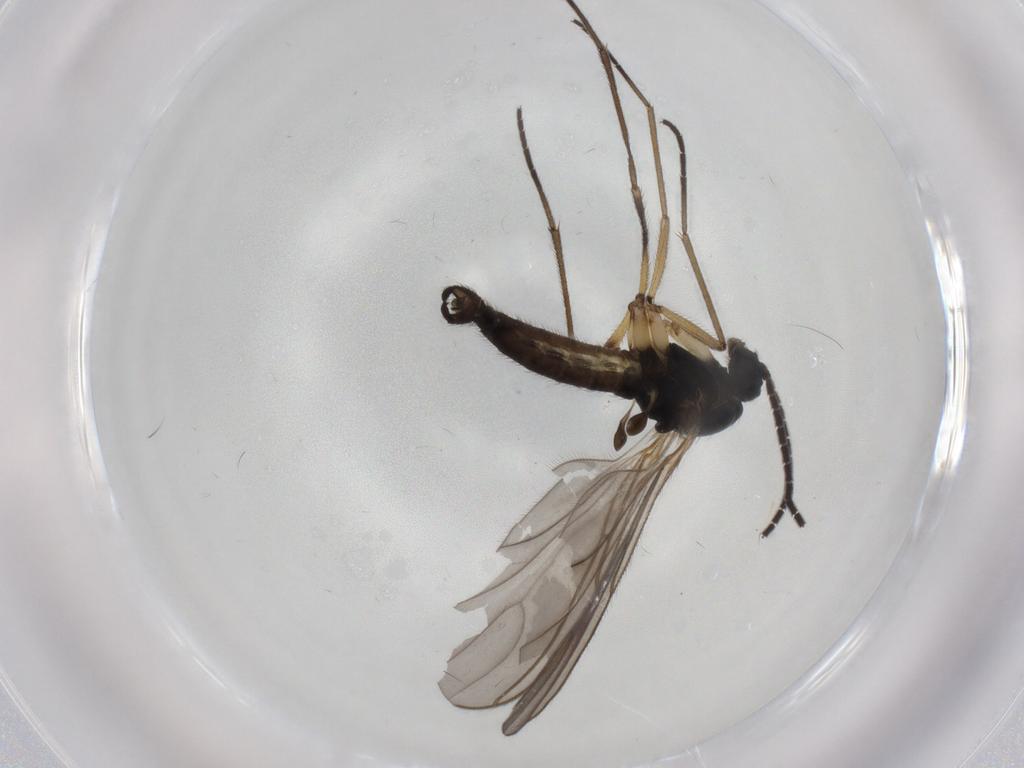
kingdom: Animalia
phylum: Arthropoda
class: Insecta
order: Diptera
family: Sciaridae
